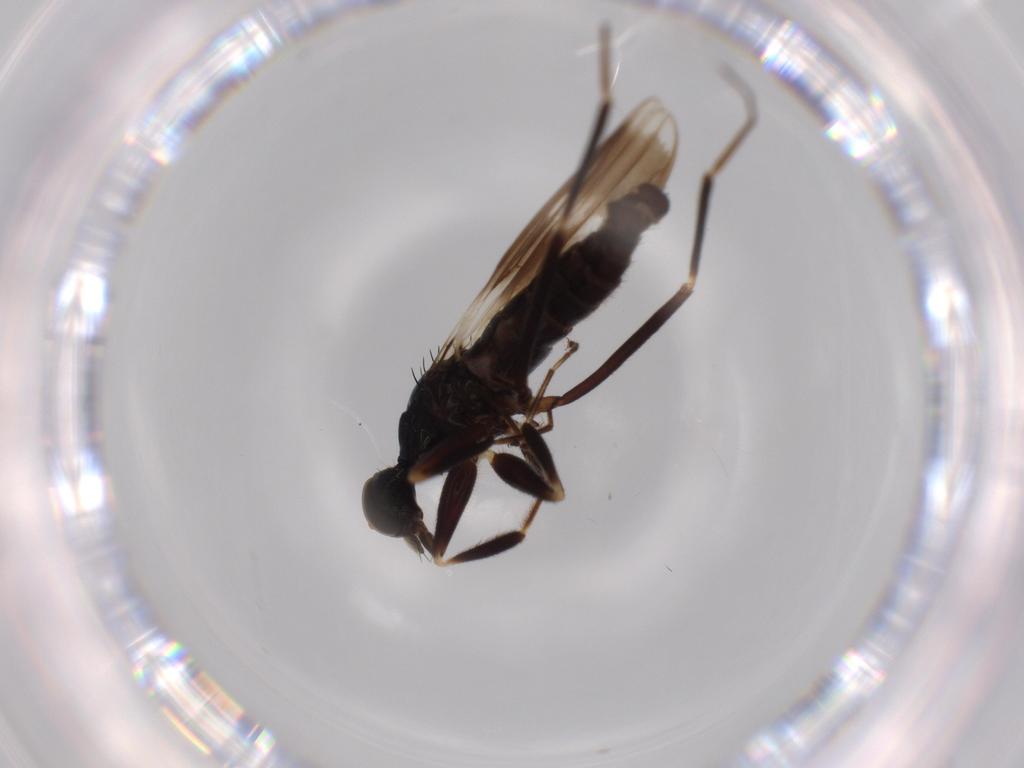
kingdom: Animalia
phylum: Arthropoda
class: Insecta
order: Diptera
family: Hybotidae
